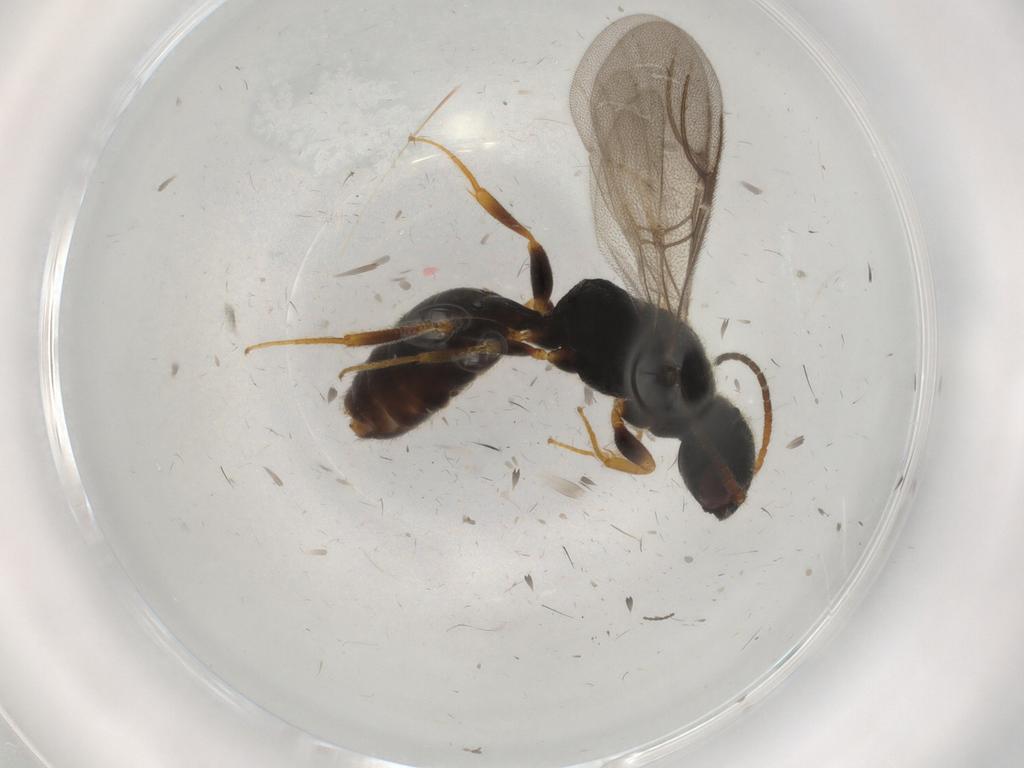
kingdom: Animalia
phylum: Arthropoda
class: Insecta
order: Hymenoptera
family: Bethylidae
